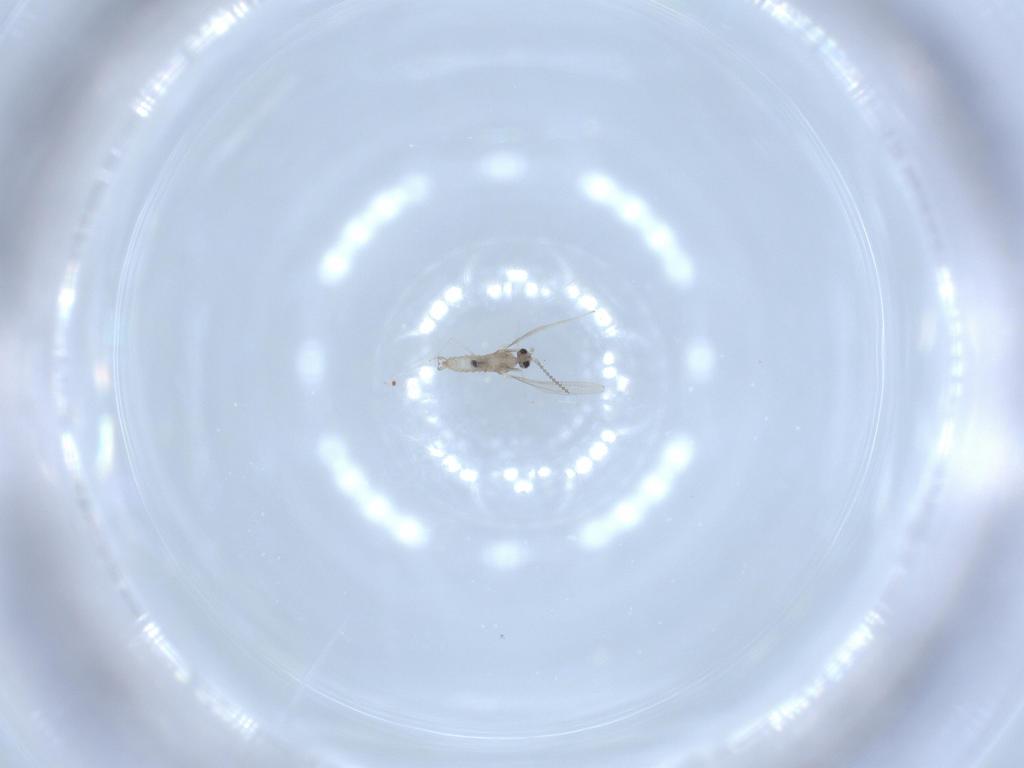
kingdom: Animalia
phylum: Arthropoda
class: Insecta
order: Diptera
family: Cecidomyiidae
